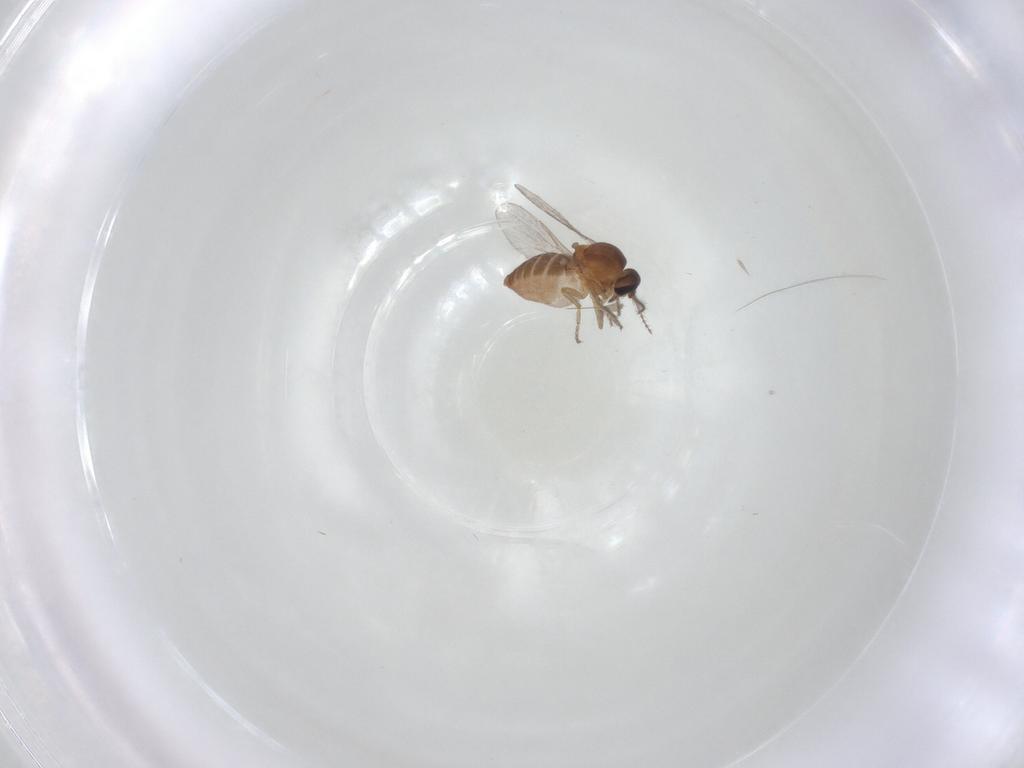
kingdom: Animalia
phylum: Arthropoda
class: Insecta
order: Diptera
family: Ceratopogonidae
